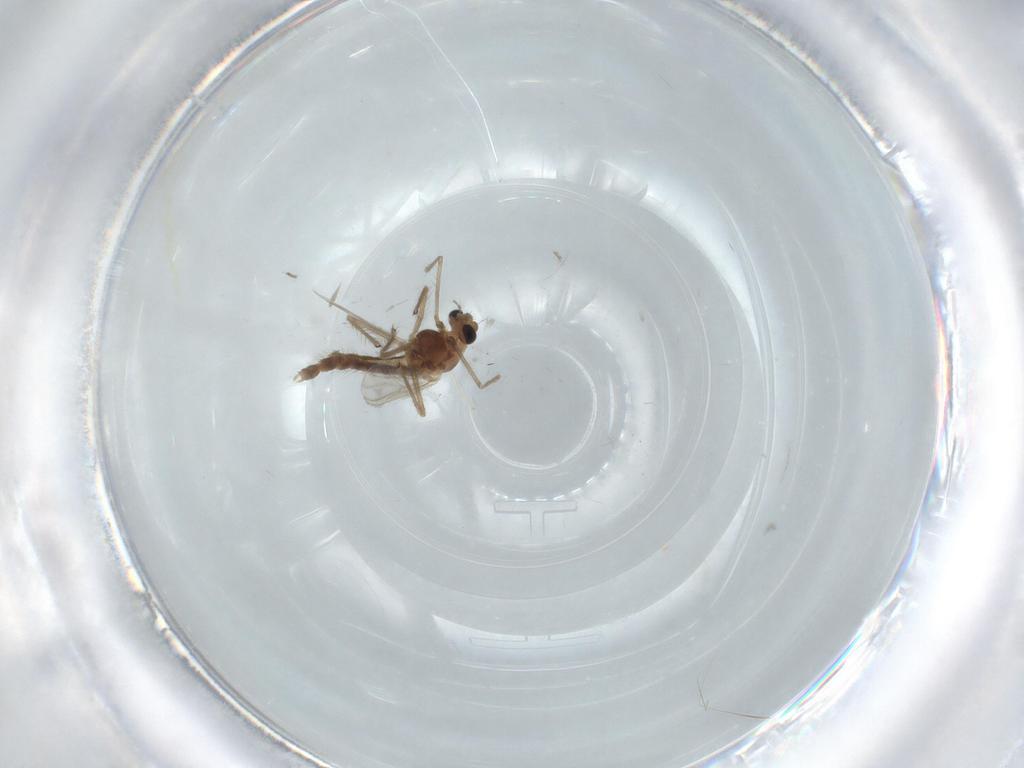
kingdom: Animalia
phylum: Arthropoda
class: Insecta
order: Diptera
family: Chironomidae
